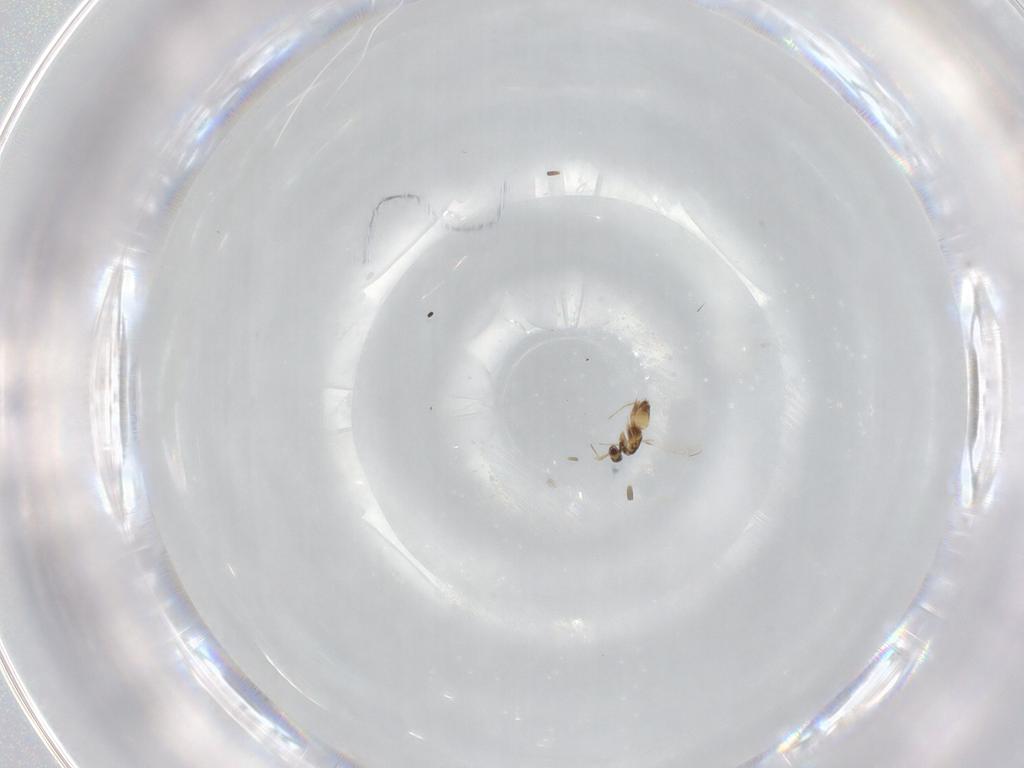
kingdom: Animalia
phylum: Arthropoda
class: Insecta
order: Hymenoptera
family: Mymaridae
